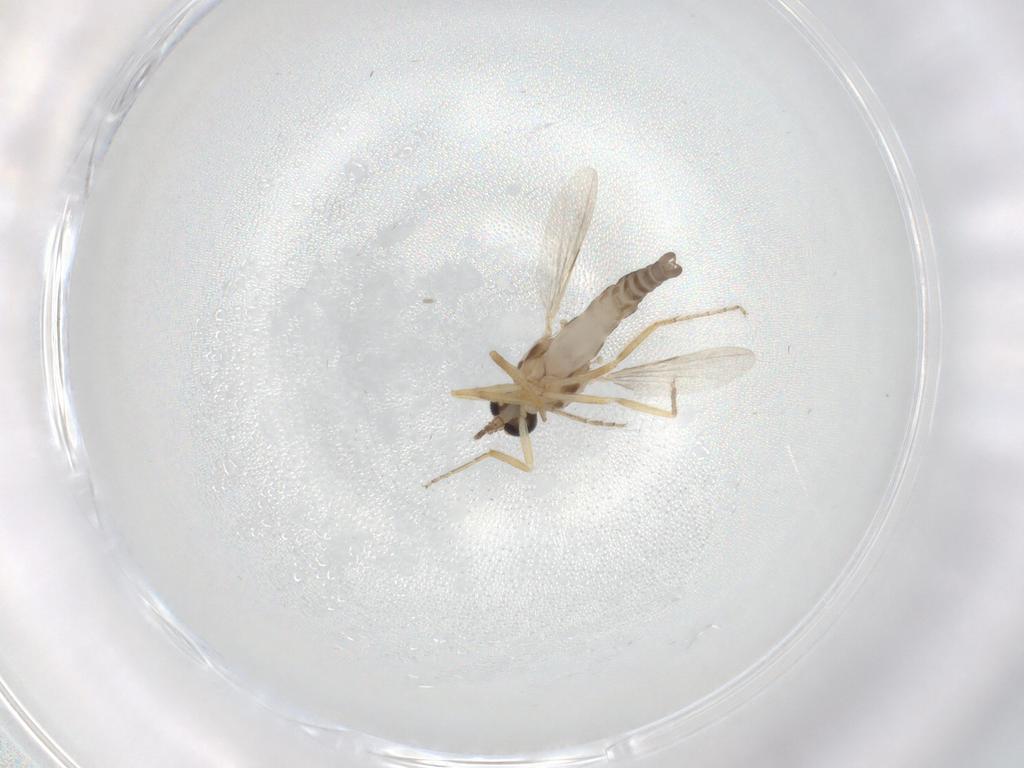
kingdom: Animalia
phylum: Arthropoda
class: Insecta
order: Diptera
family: Ceratopogonidae
